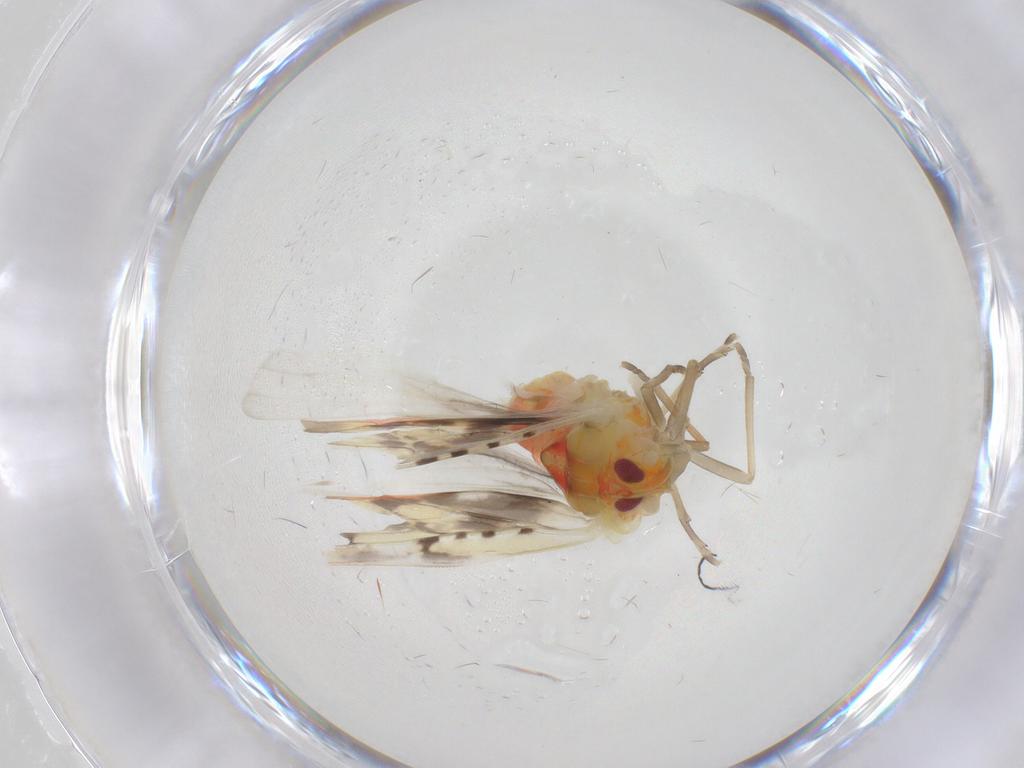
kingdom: Animalia
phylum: Arthropoda
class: Insecta
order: Hemiptera
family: Derbidae
